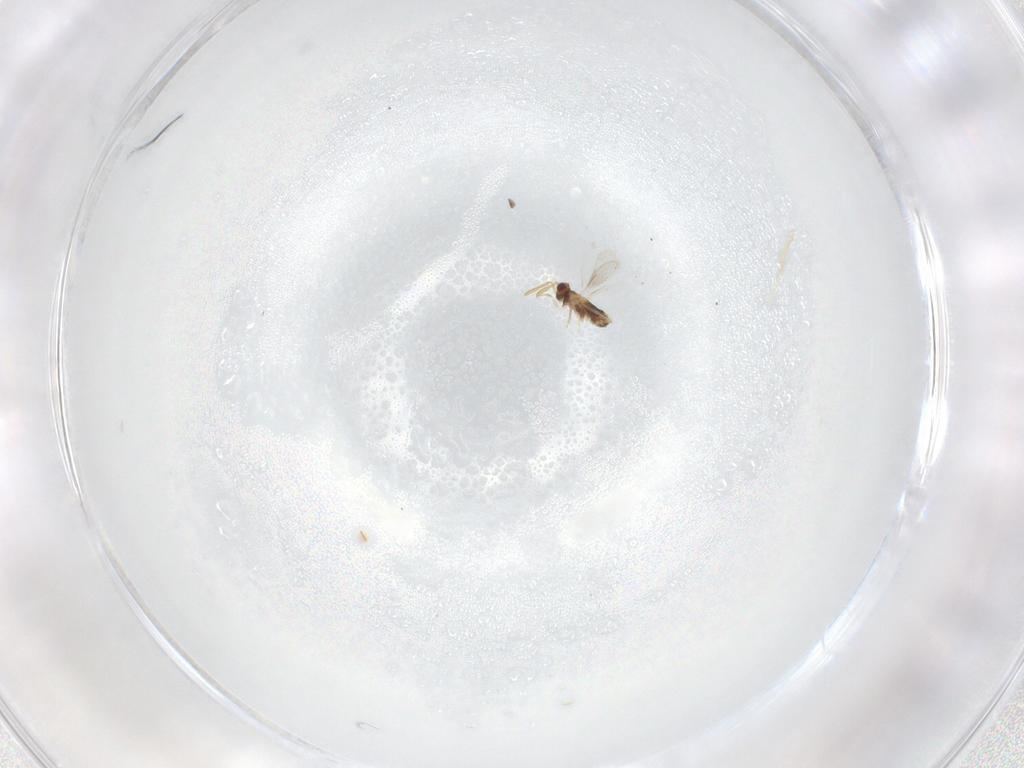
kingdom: Animalia
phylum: Arthropoda
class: Insecta
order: Hymenoptera
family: Aphelinidae
